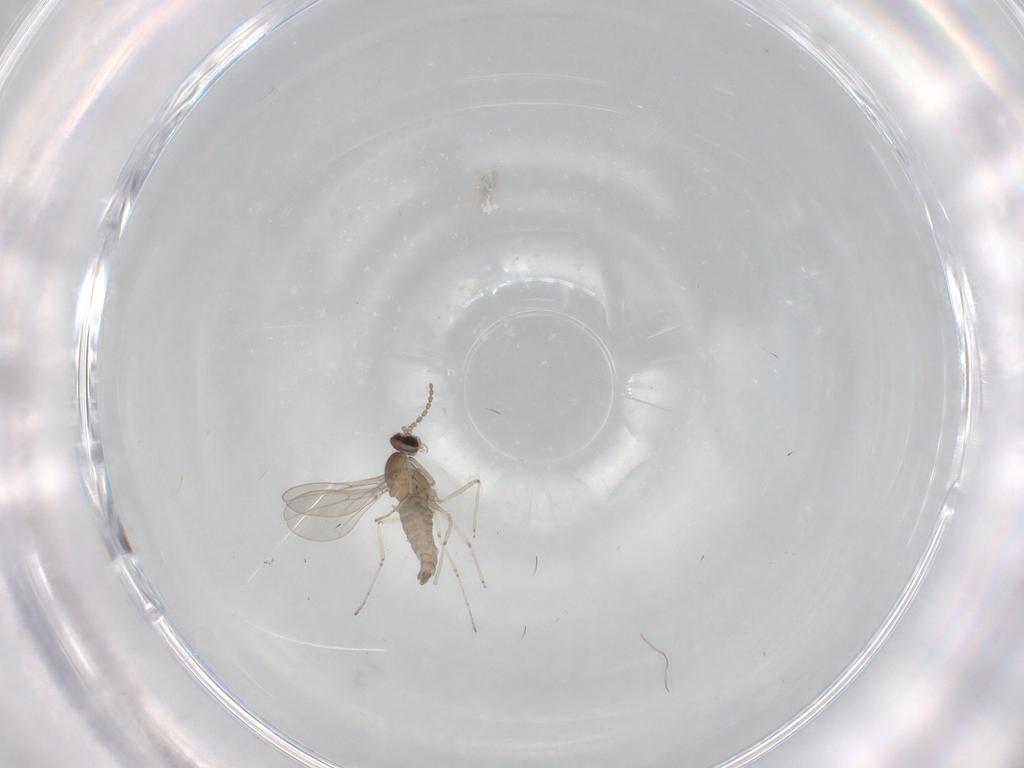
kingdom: Animalia
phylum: Arthropoda
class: Insecta
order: Diptera
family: Cecidomyiidae
